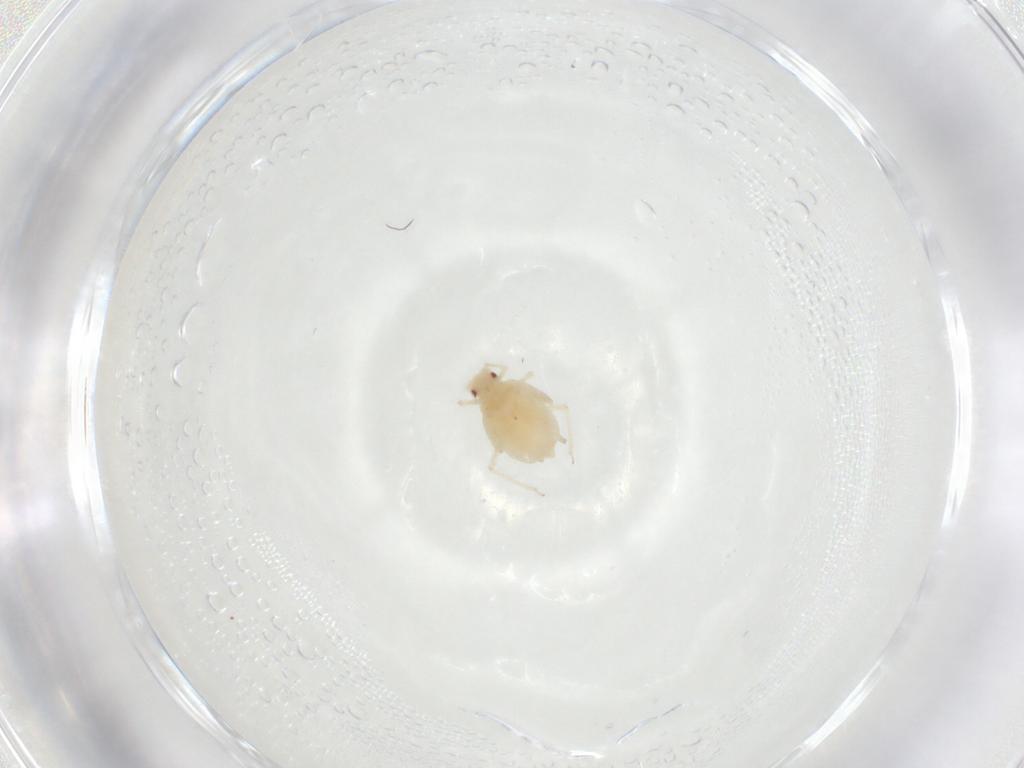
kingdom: Animalia
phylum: Arthropoda
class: Insecta
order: Hemiptera
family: Aphididae
